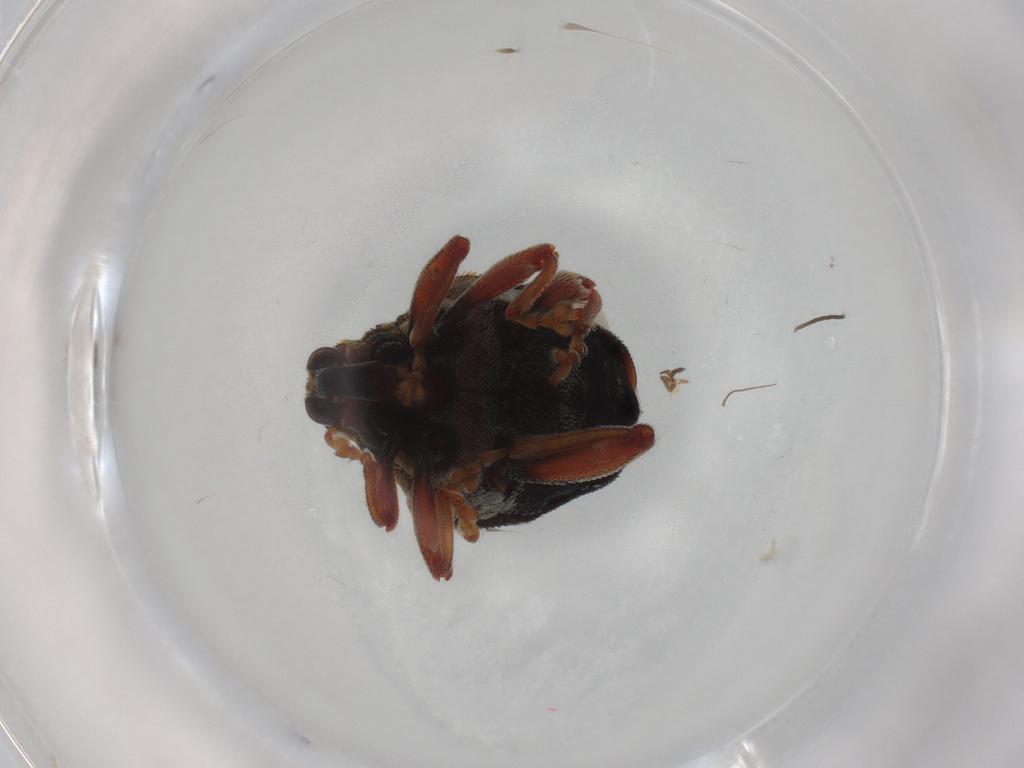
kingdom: Animalia
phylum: Arthropoda
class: Insecta
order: Coleoptera
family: Curculionidae
